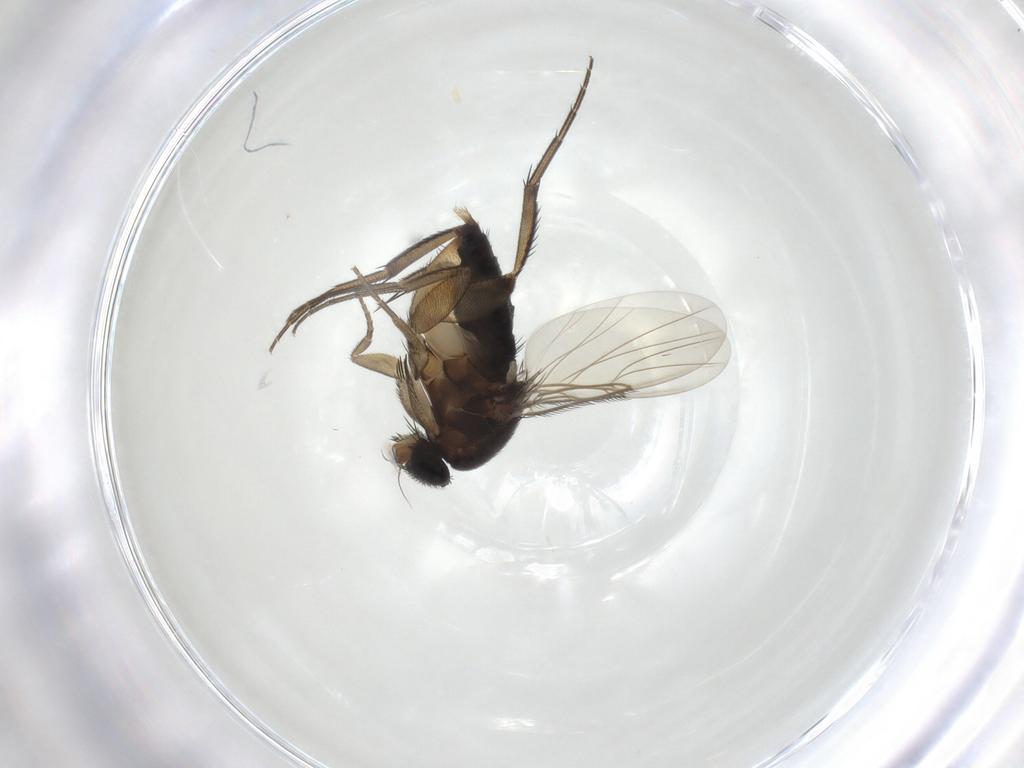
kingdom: Animalia
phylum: Arthropoda
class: Insecta
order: Diptera
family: Phoridae
